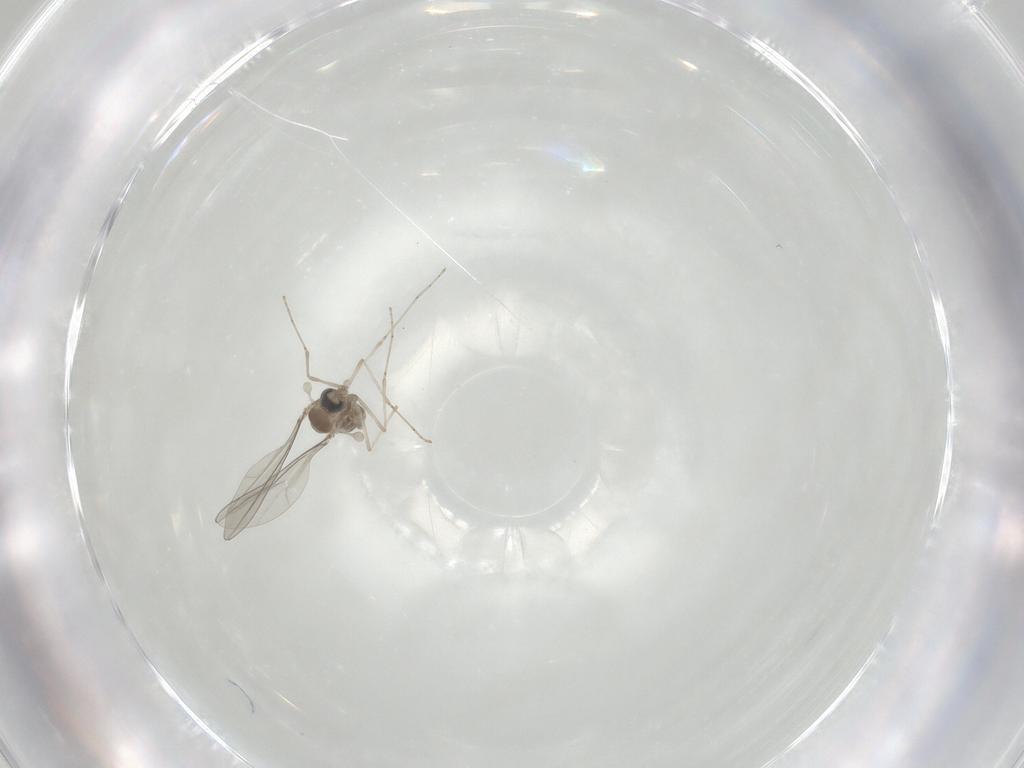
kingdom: Animalia
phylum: Arthropoda
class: Insecta
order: Diptera
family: Cecidomyiidae
